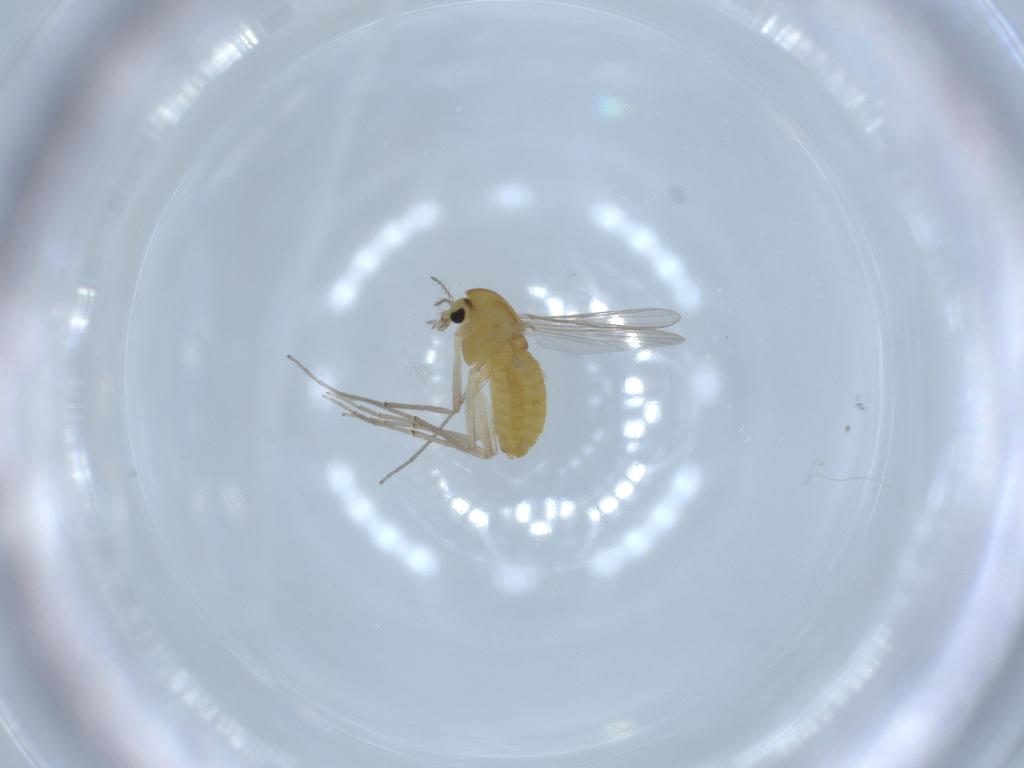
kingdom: Animalia
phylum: Arthropoda
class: Insecta
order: Diptera
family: Chironomidae
